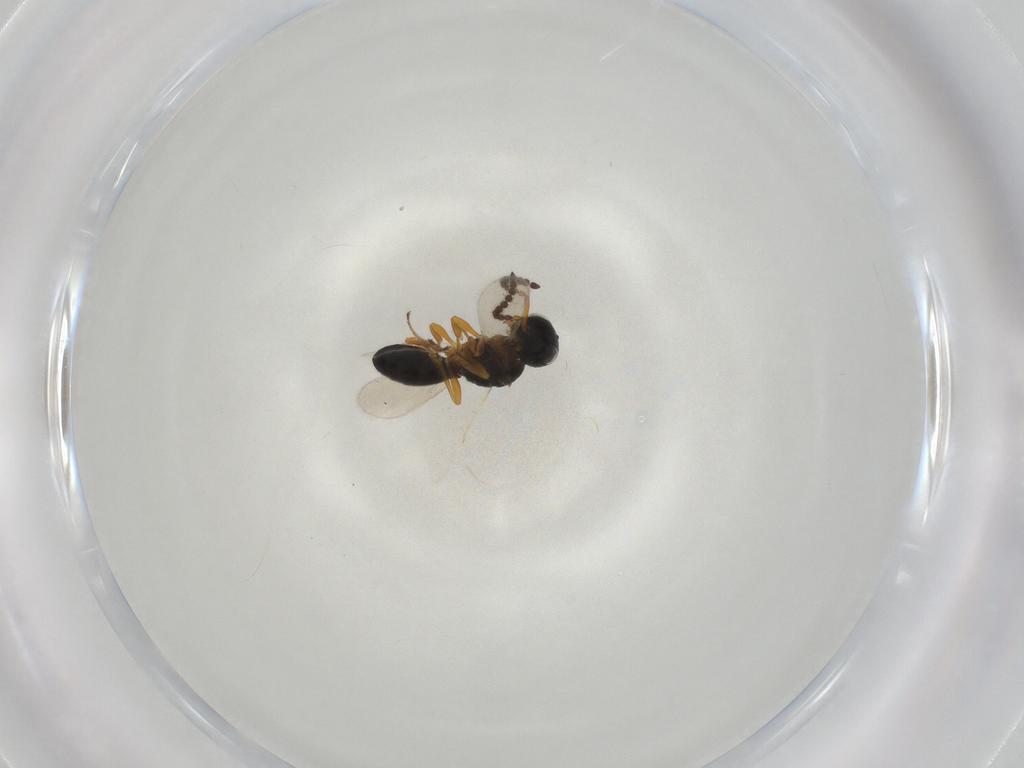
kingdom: Animalia
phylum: Arthropoda
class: Insecta
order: Hymenoptera
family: Scelionidae
